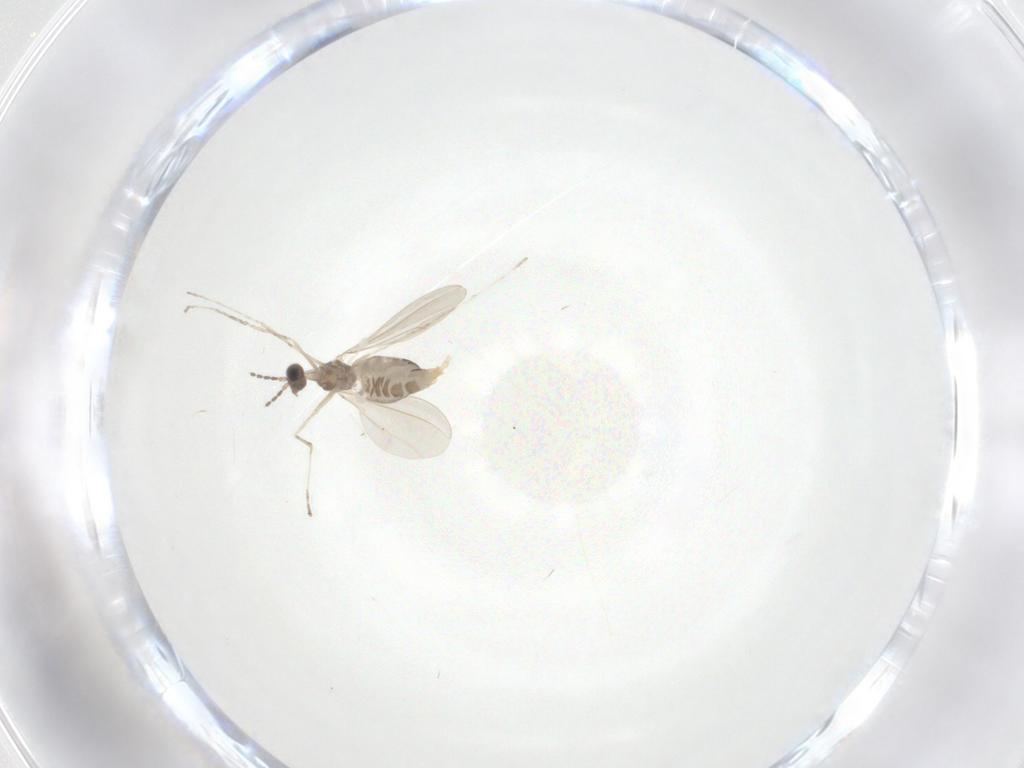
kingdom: Animalia
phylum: Arthropoda
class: Insecta
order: Diptera
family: Cecidomyiidae
